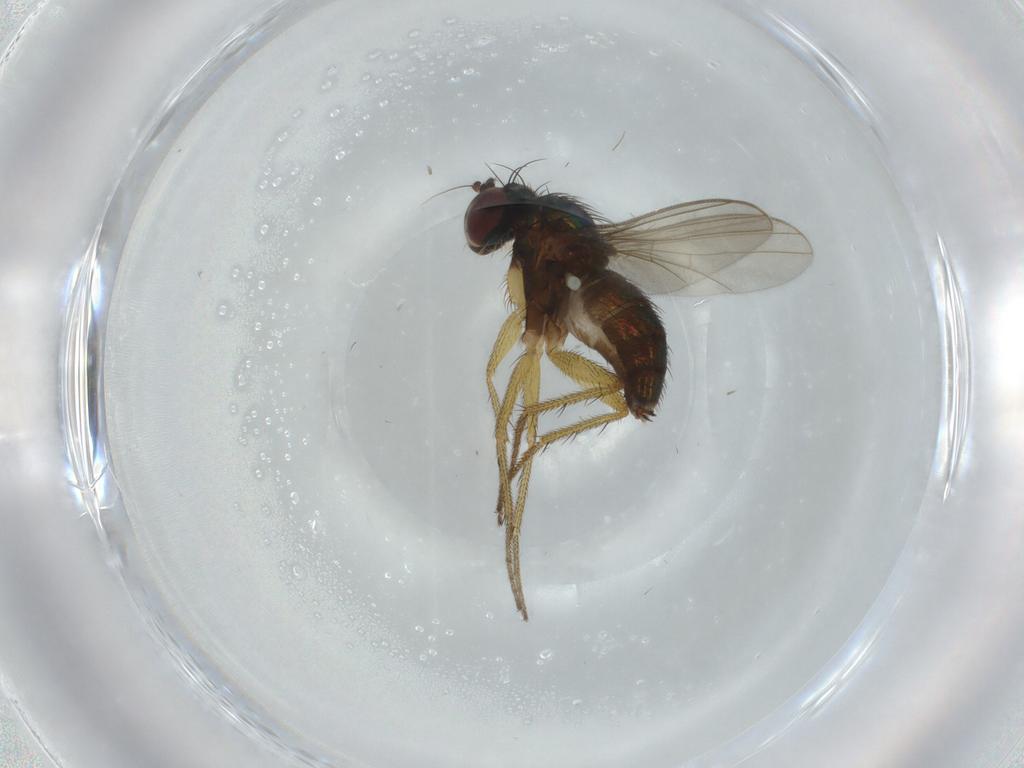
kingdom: Animalia
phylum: Arthropoda
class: Insecta
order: Diptera
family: Dolichopodidae
